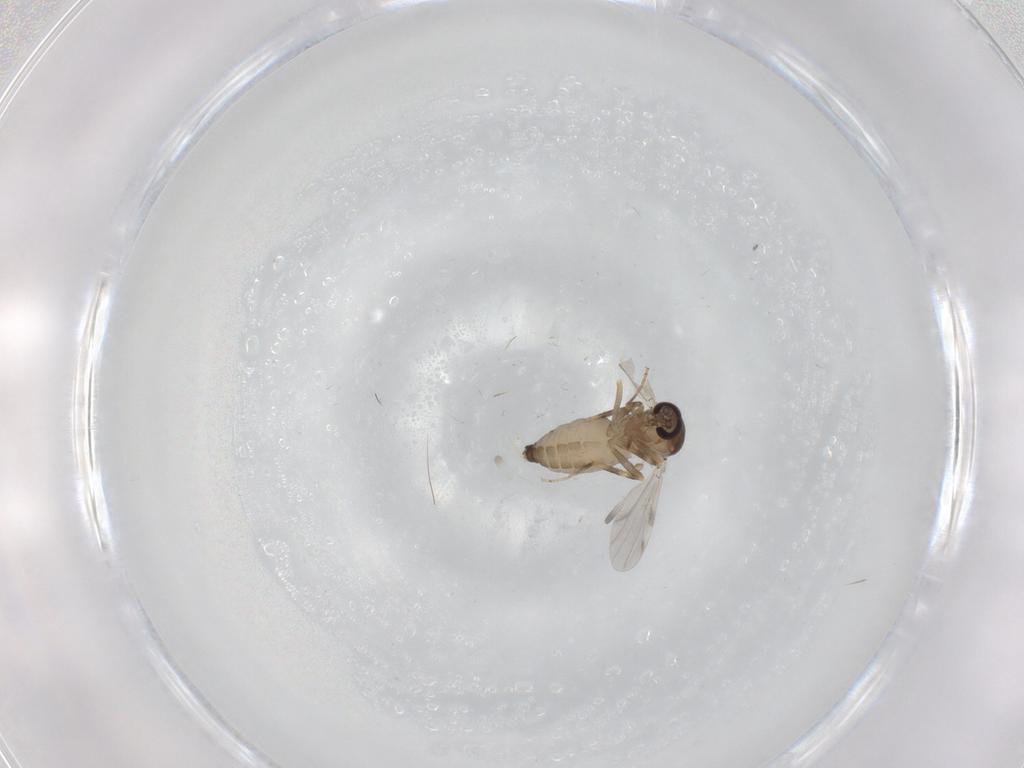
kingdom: Animalia
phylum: Arthropoda
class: Insecta
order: Diptera
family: Ceratopogonidae
